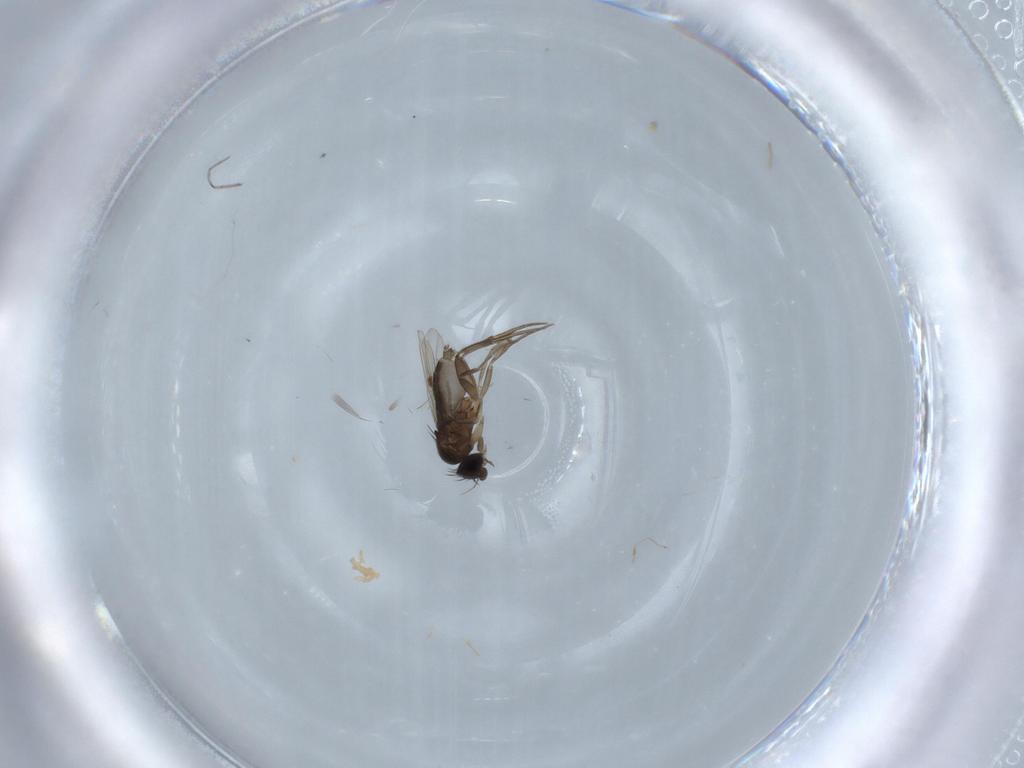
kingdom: Animalia
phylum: Arthropoda
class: Insecta
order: Diptera
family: Phoridae
